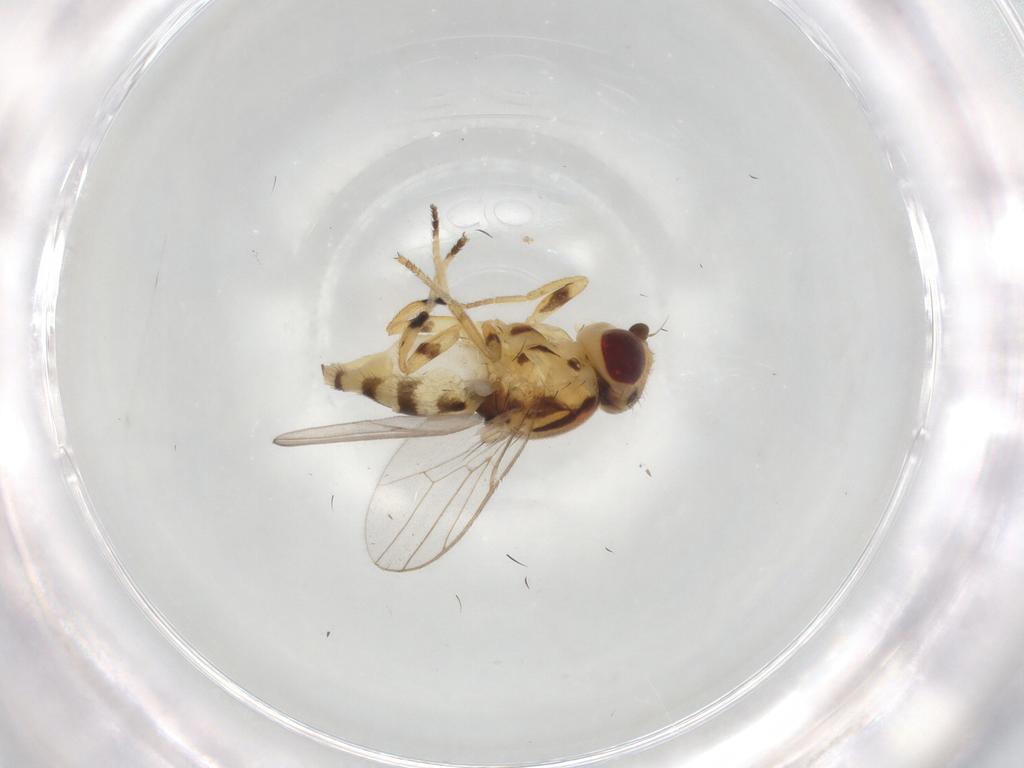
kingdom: Animalia
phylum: Arthropoda
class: Insecta
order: Diptera
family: Chloropidae
